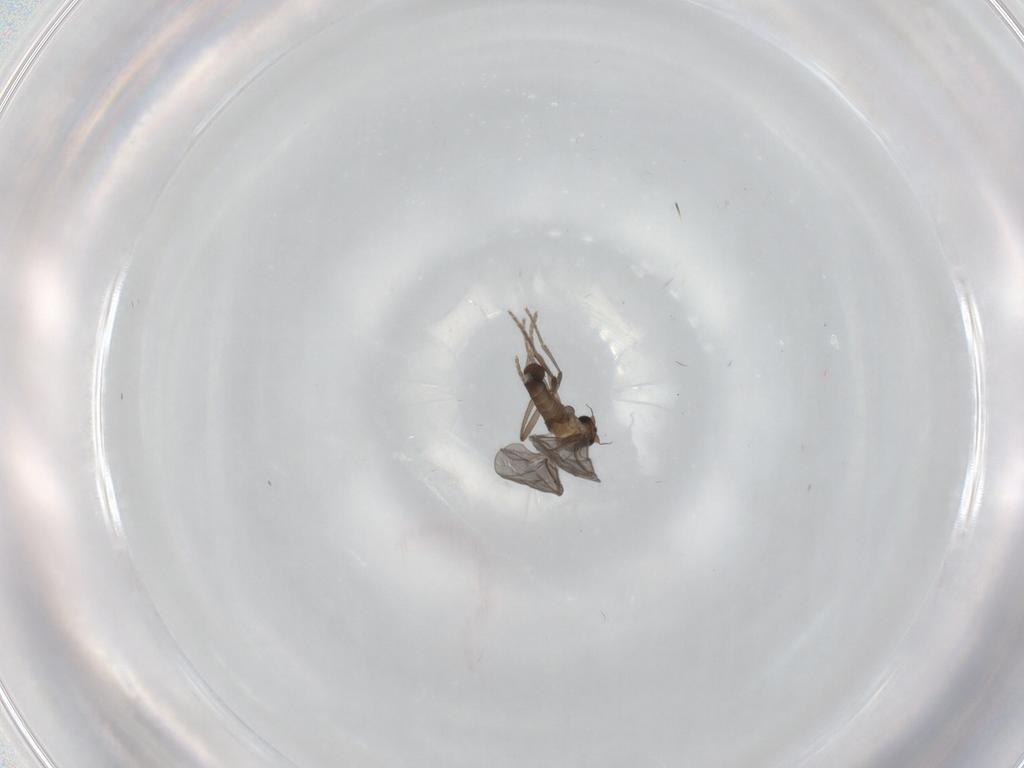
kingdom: Animalia
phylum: Arthropoda
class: Insecta
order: Diptera
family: Phoridae
